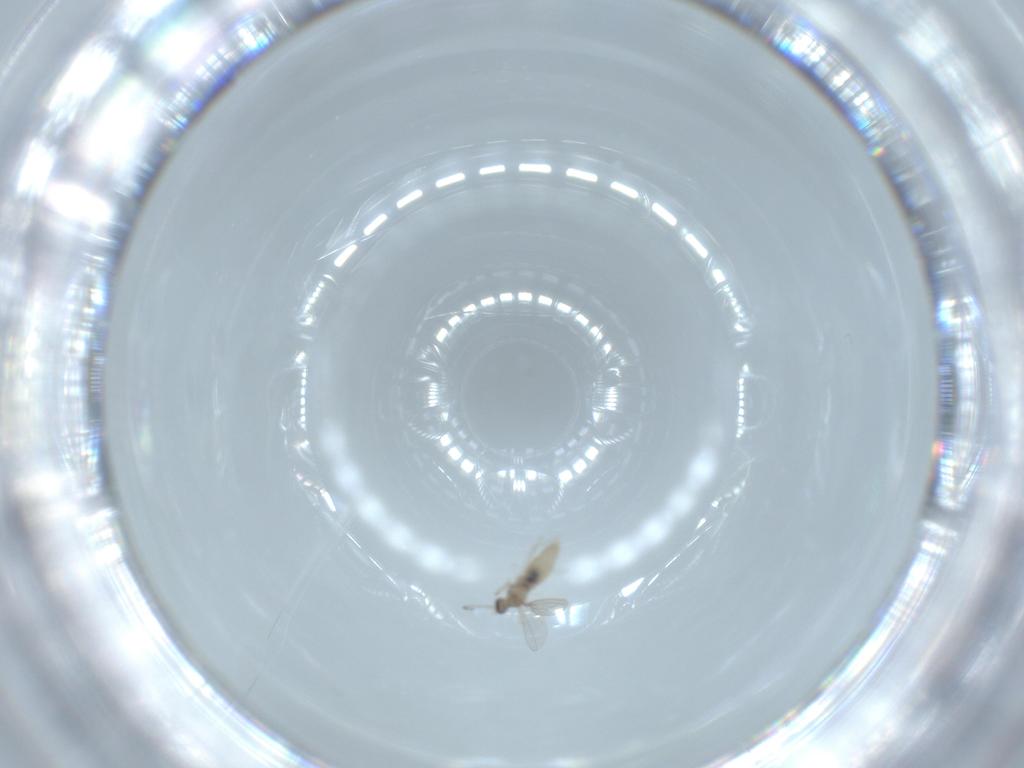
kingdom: Animalia
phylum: Arthropoda
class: Insecta
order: Diptera
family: Cecidomyiidae
